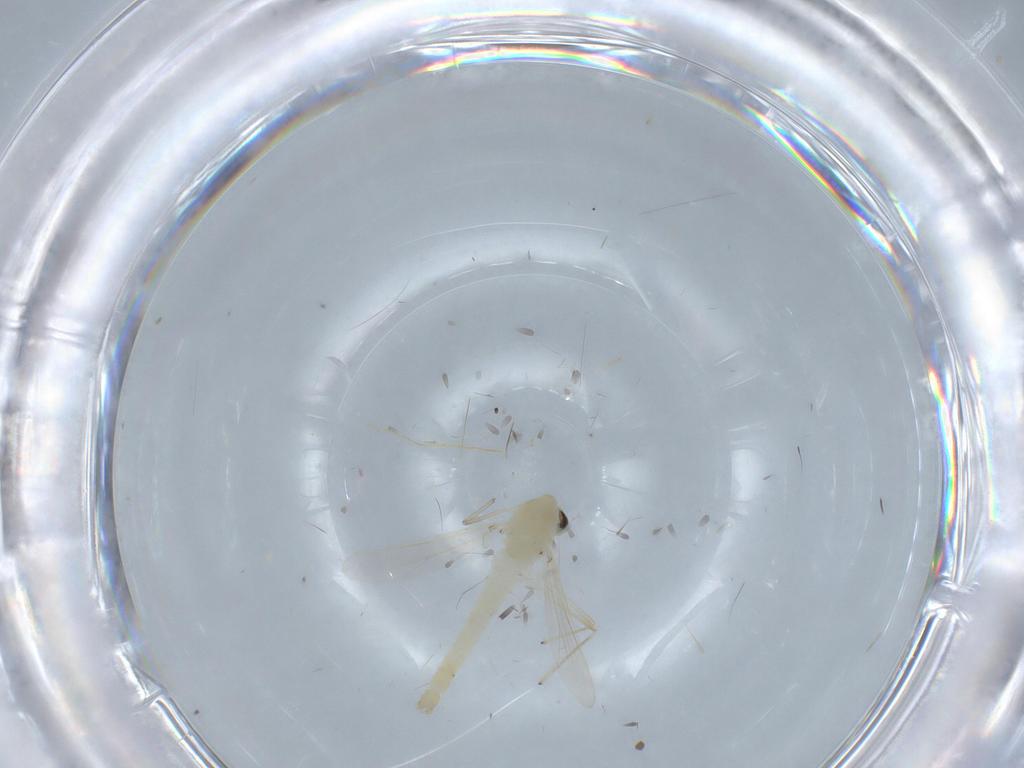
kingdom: Animalia
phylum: Arthropoda
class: Insecta
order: Diptera
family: Chironomidae
